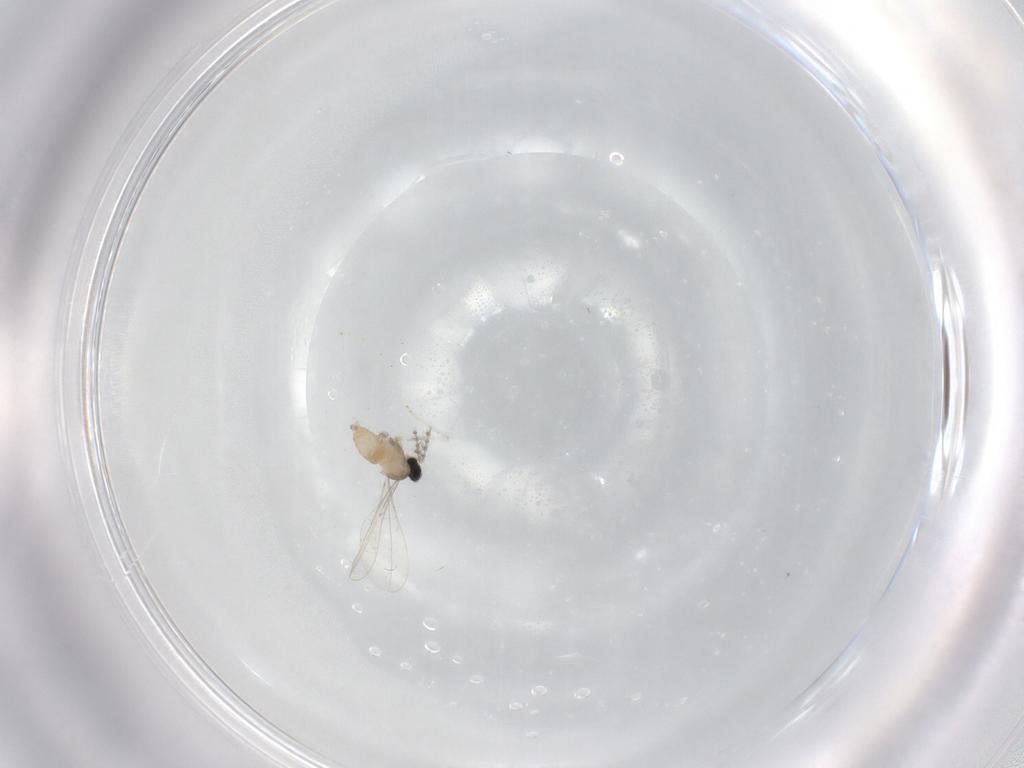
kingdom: Animalia
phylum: Arthropoda
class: Insecta
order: Diptera
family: Cecidomyiidae
